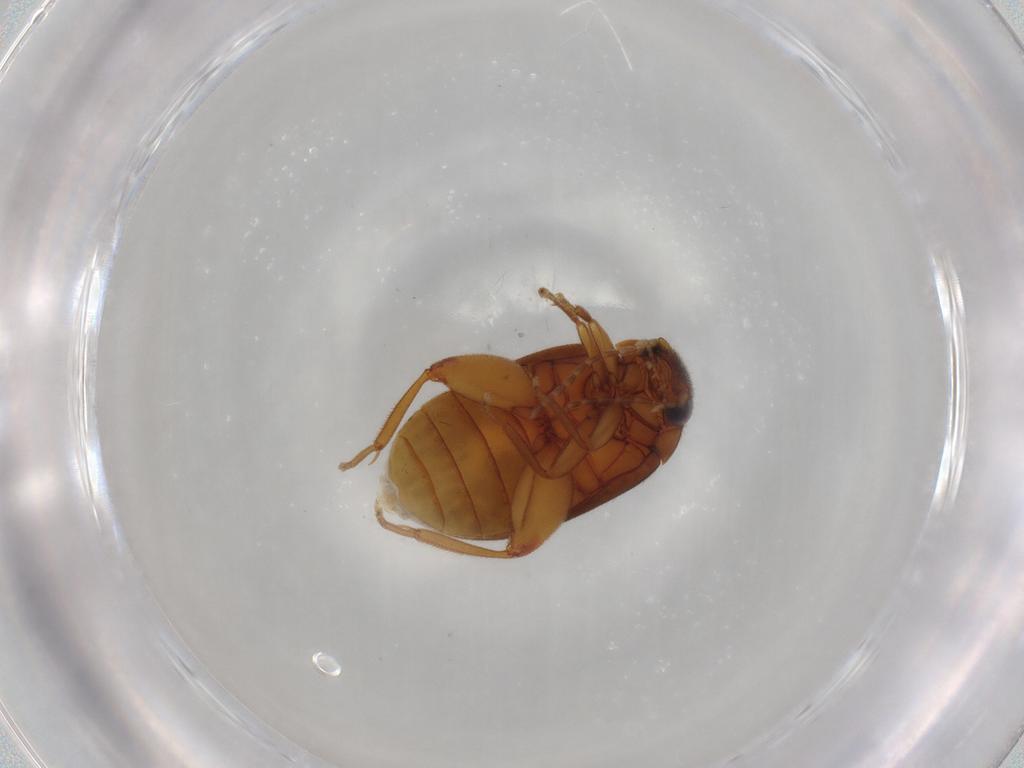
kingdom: Animalia
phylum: Arthropoda
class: Insecta
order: Coleoptera
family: Scirtidae
